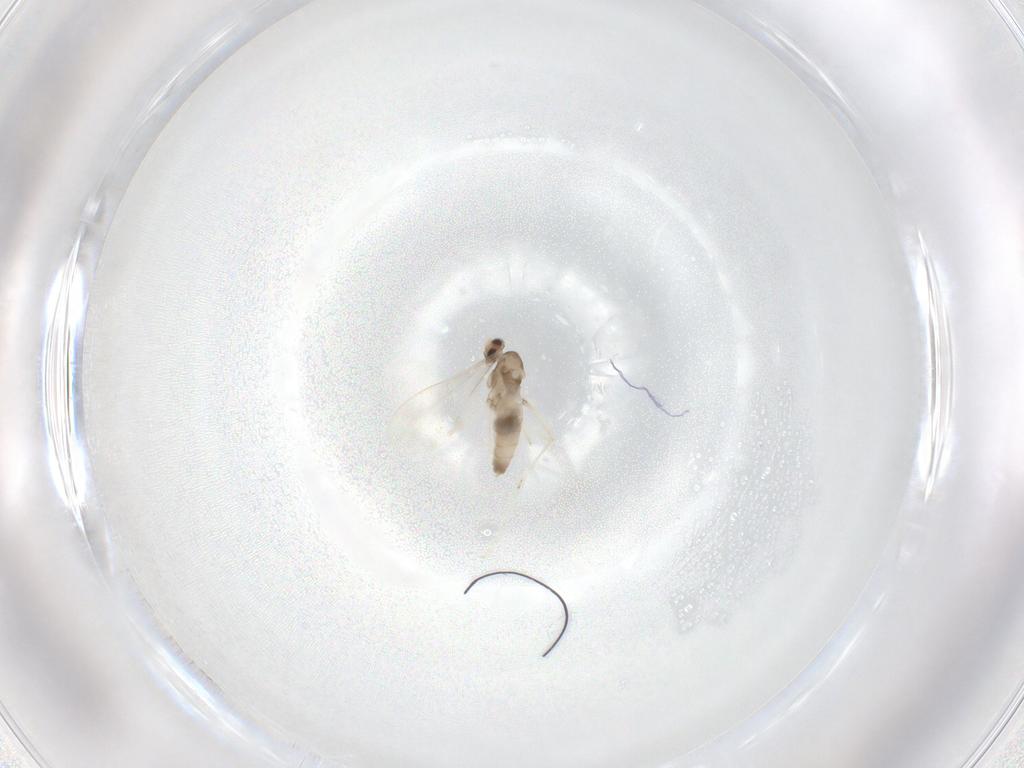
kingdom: Animalia
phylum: Arthropoda
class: Insecta
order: Diptera
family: Cecidomyiidae
